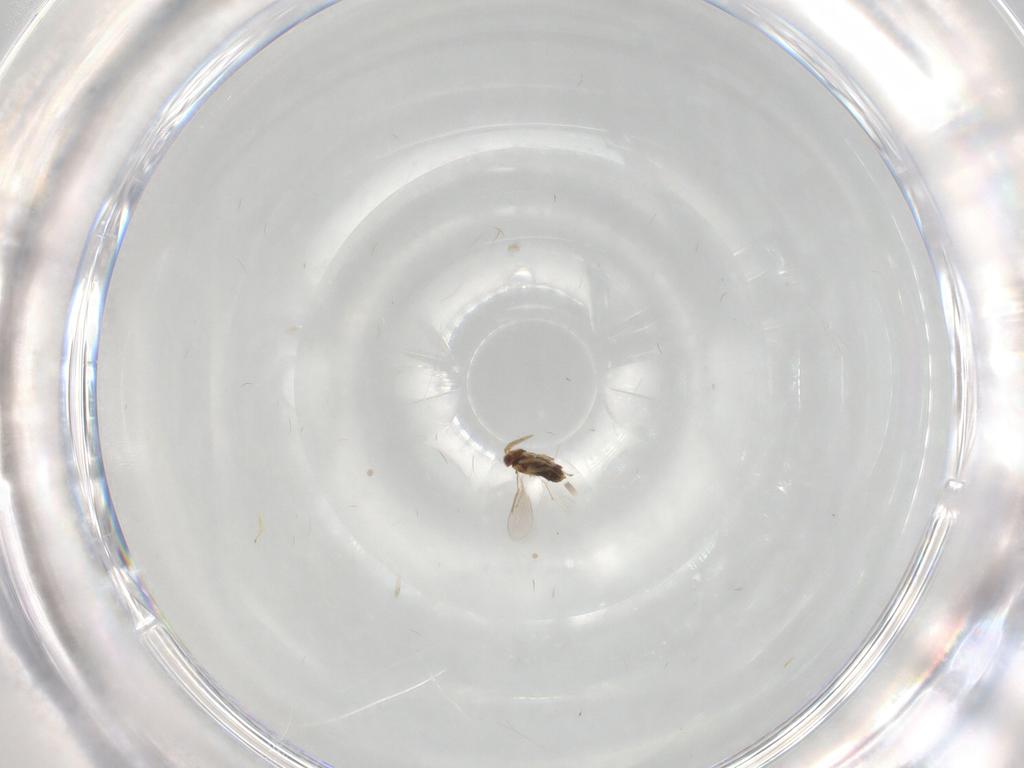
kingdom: Animalia
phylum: Arthropoda
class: Insecta
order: Hymenoptera
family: Aphelinidae
